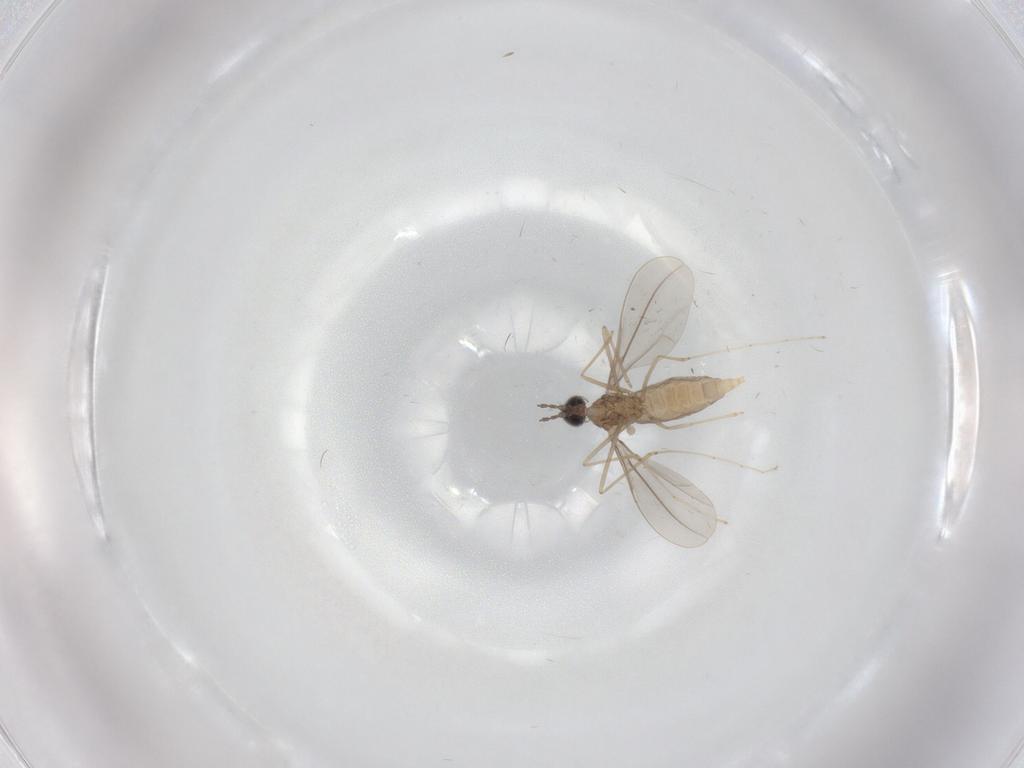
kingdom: Animalia
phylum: Arthropoda
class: Insecta
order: Diptera
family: Cecidomyiidae
